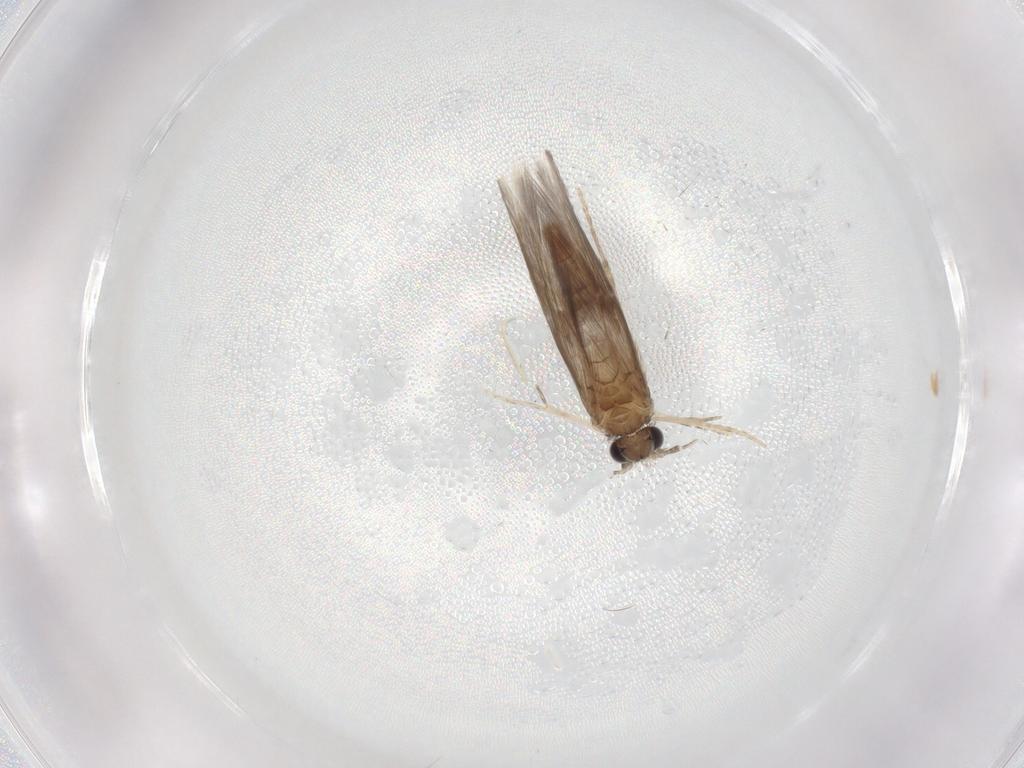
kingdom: Animalia
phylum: Arthropoda
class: Insecta
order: Trichoptera
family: Hydroptilidae
